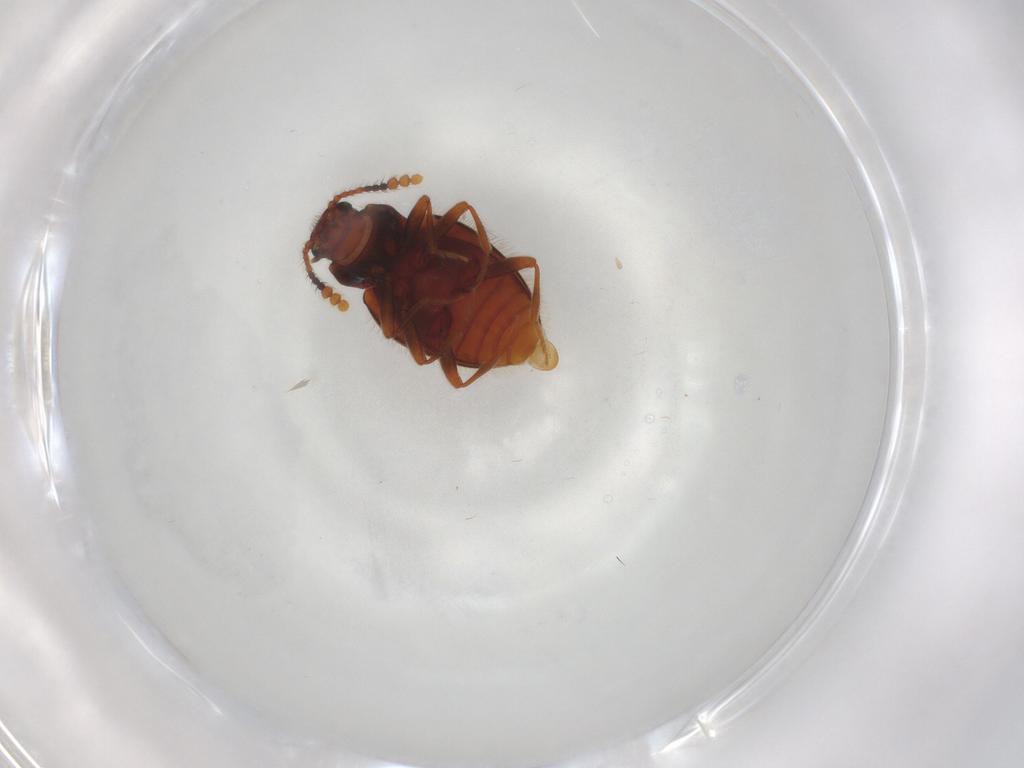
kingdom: Animalia
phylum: Arthropoda
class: Insecta
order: Coleoptera
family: Erotylidae
